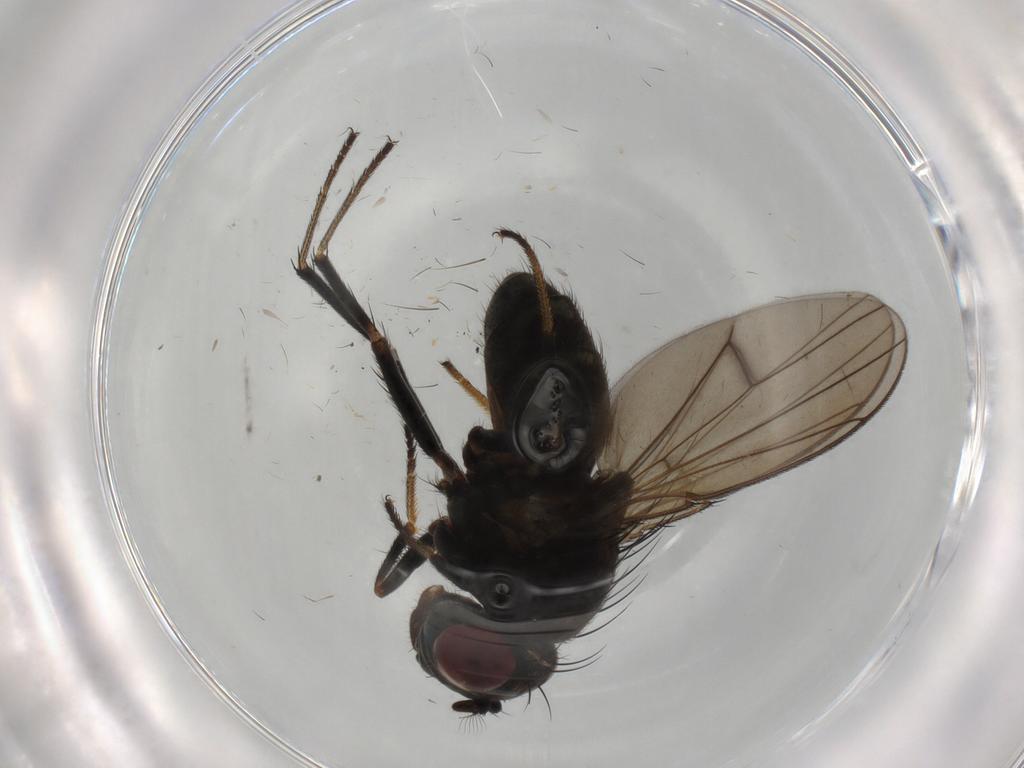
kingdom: Animalia
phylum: Arthropoda
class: Insecta
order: Diptera
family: Ephydridae
